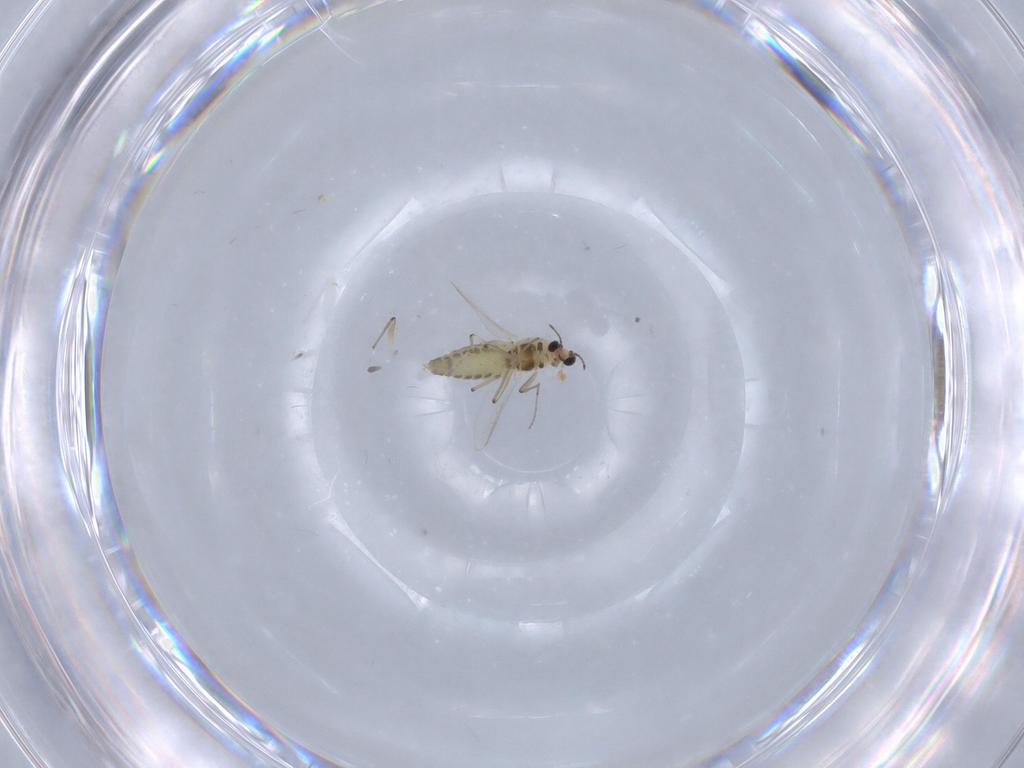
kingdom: Animalia
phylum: Arthropoda
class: Insecta
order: Diptera
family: Chironomidae
